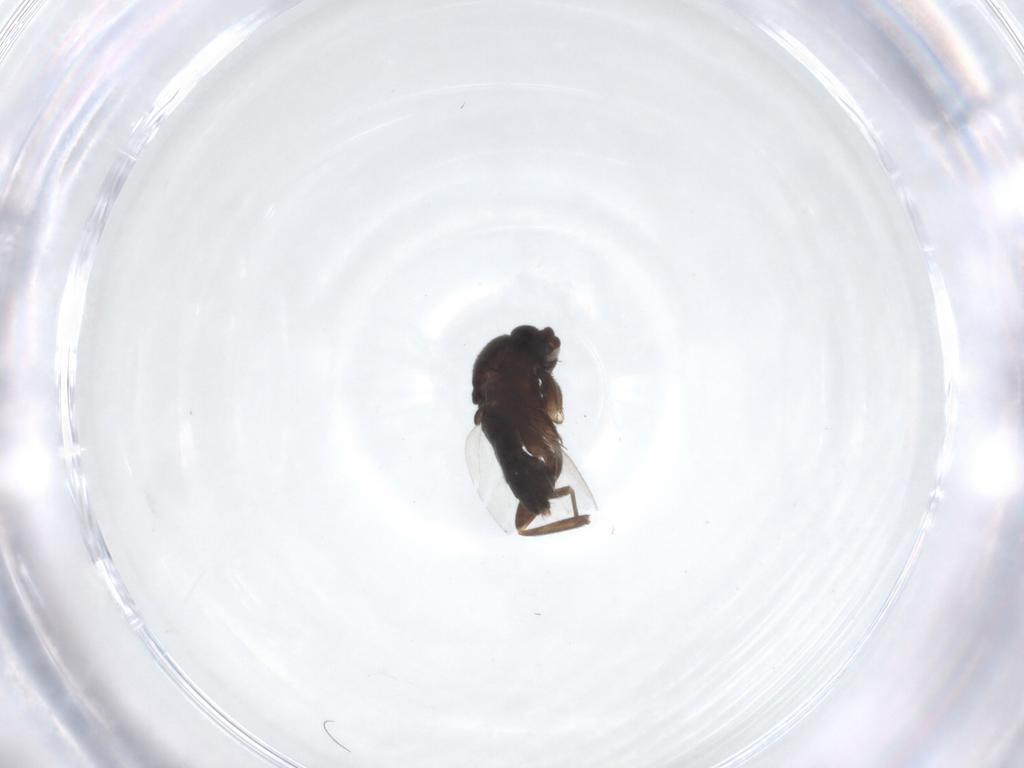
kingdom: Animalia
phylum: Arthropoda
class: Insecta
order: Diptera
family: Phoridae
